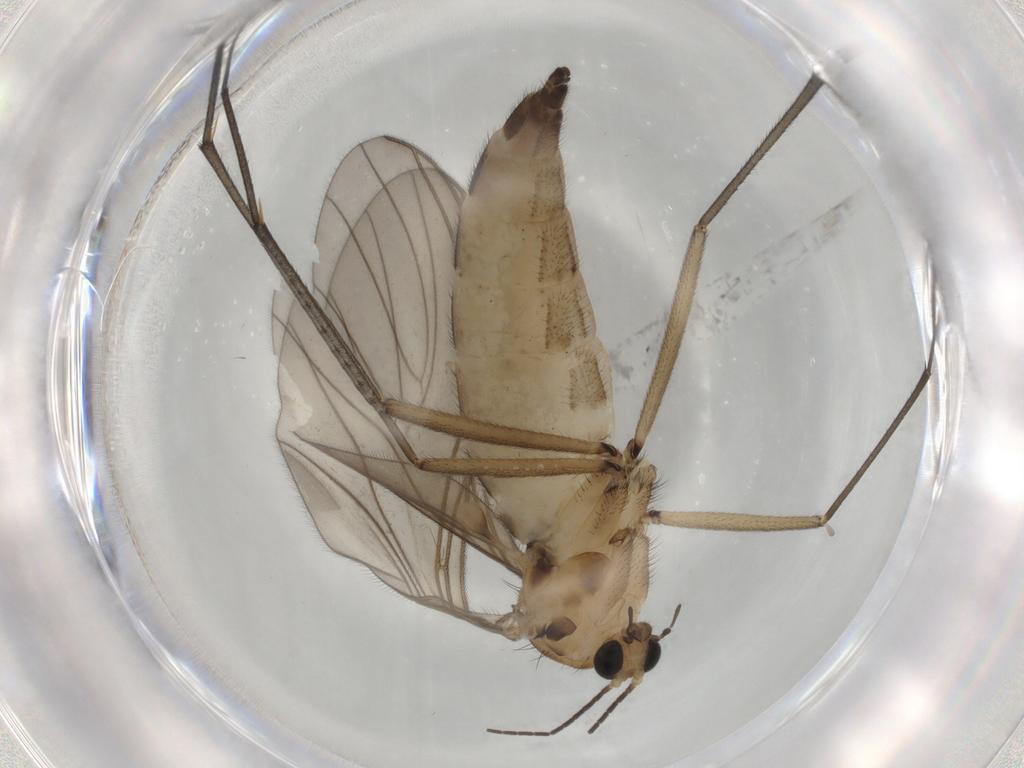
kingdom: Animalia
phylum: Arthropoda
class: Insecta
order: Diptera
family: Sciaridae
